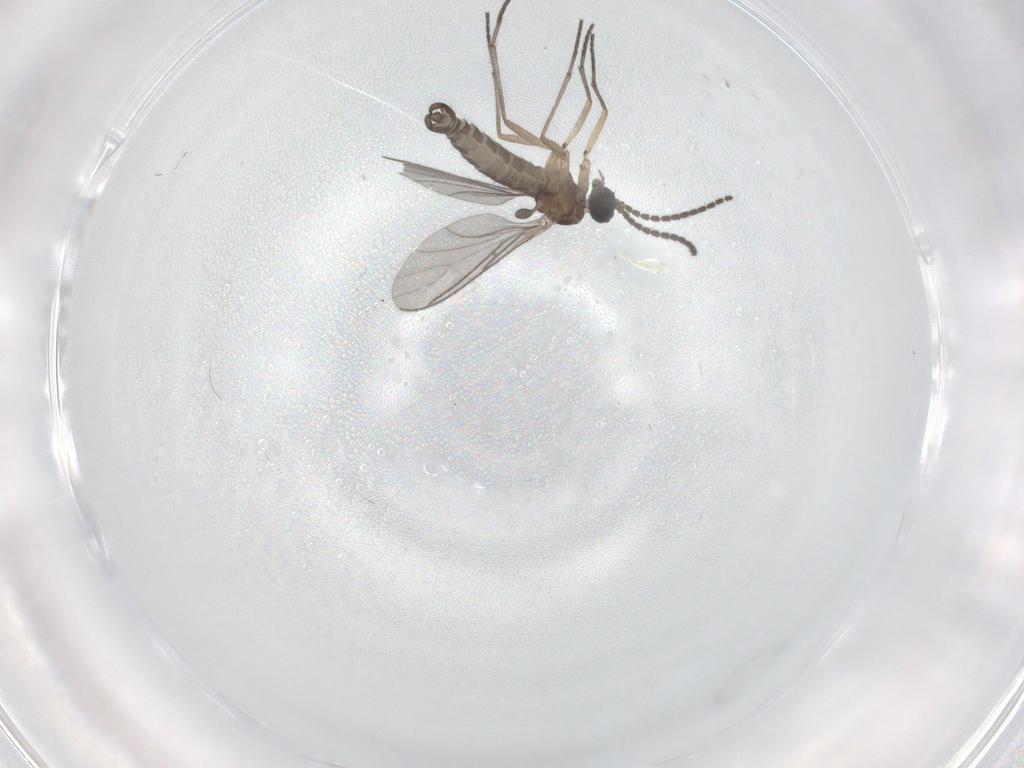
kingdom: Animalia
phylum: Arthropoda
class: Insecta
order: Diptera
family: Sciaridae
